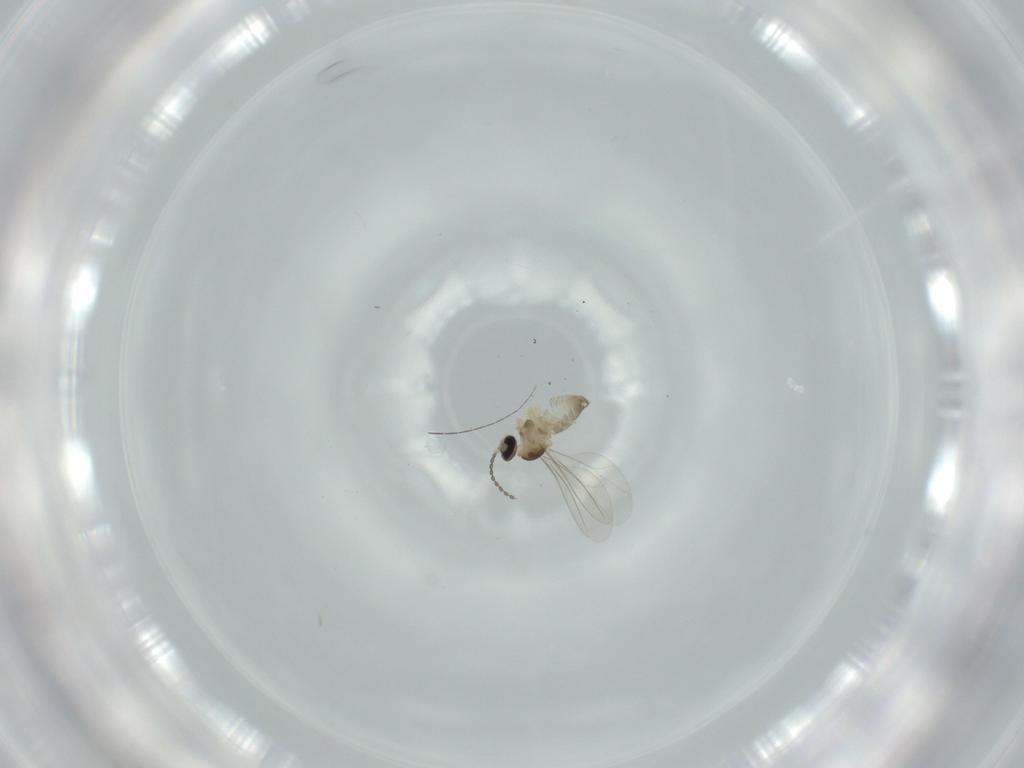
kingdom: Animalia
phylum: Arthropoda
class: Insecta
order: Diptera
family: Cecidomyiidae
